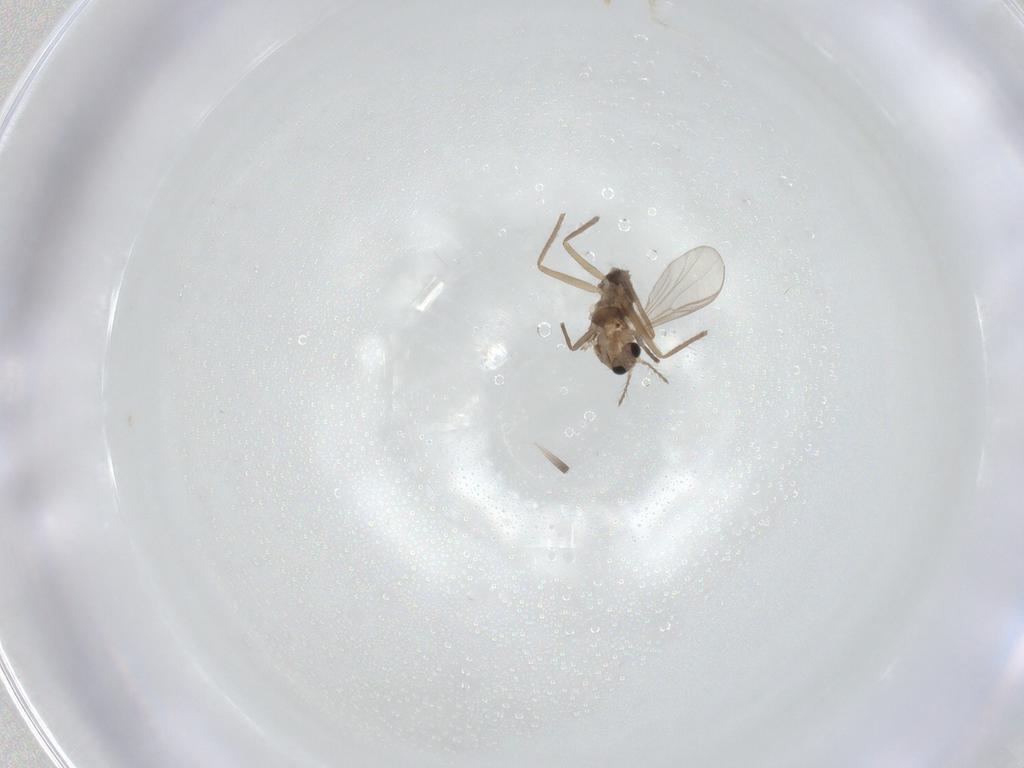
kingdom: Animalia
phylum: Arthropoda
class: Insecta
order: Diptera
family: Chironomidae
